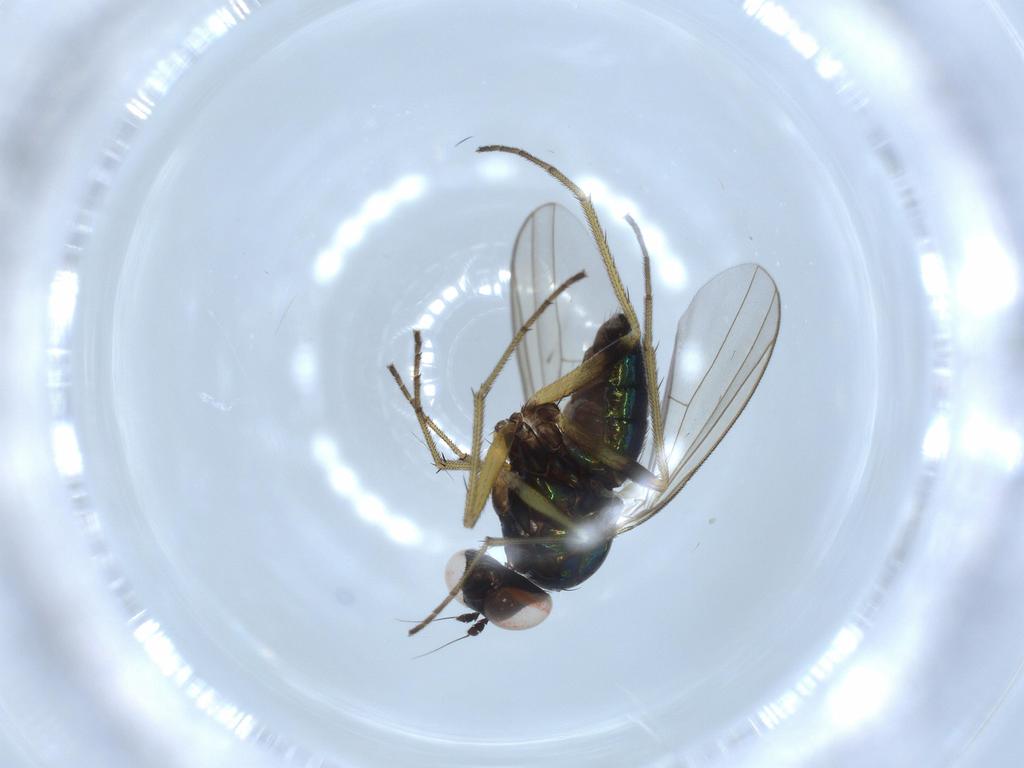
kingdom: Animalia
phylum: Arthropoda
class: Insecta
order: Diptera
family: Dolichopodidae
